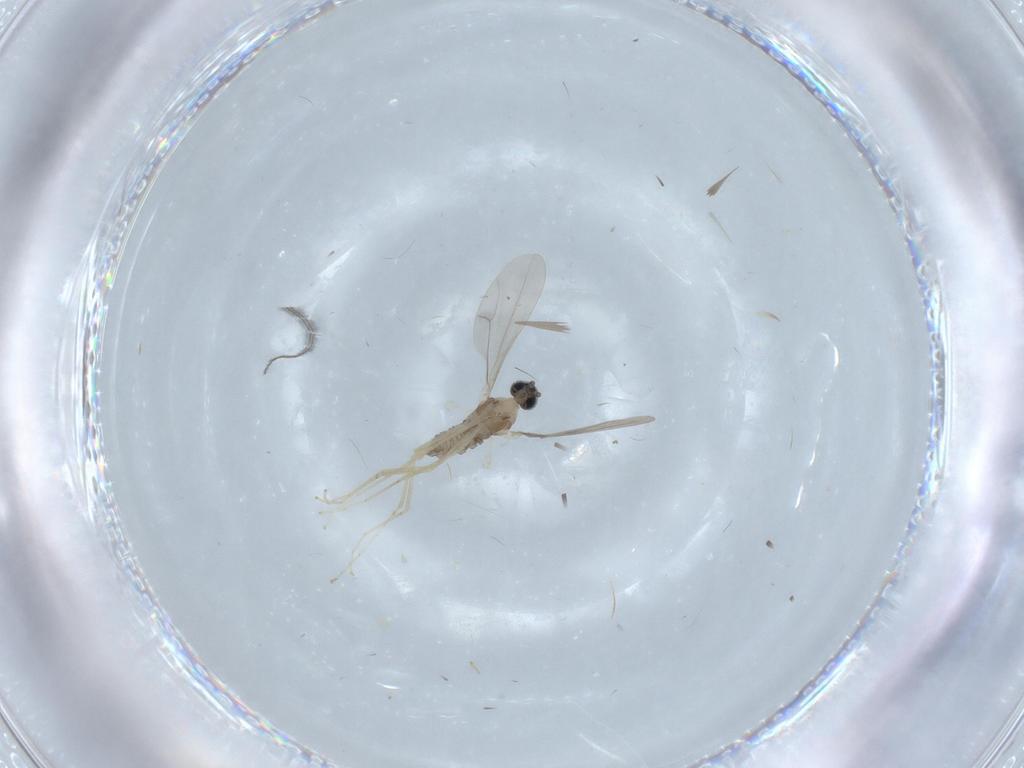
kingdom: Animalia
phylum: Arthropoda
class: Insecta
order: Diptera
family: Cecidomyiidae
